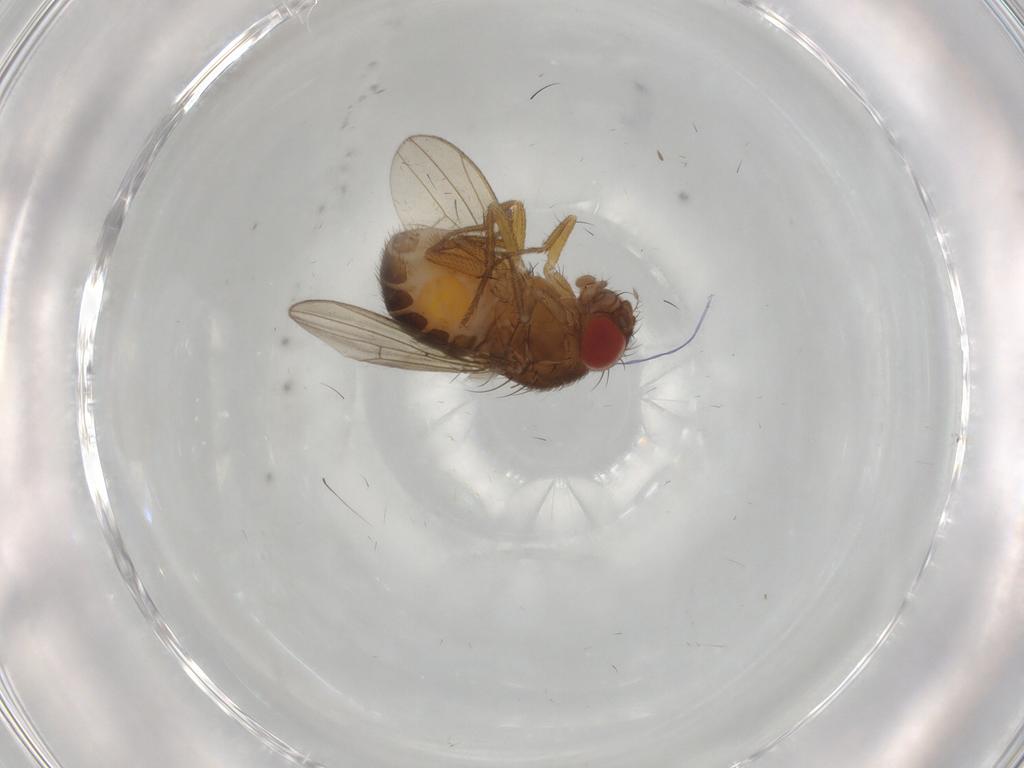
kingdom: Animalia
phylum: Arthropoda
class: Insecta
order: Diptera
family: Drosophilidae
